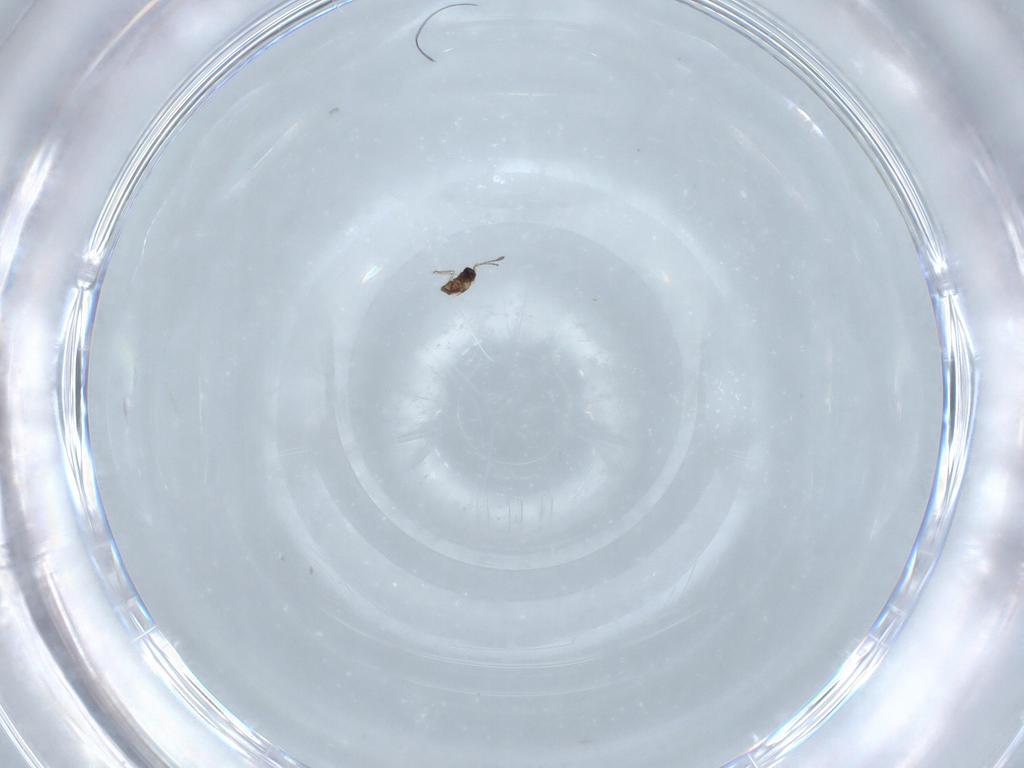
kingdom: Animalia
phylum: Arthropoda
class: Insecta
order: Hymenoptera
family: Mymaridae
